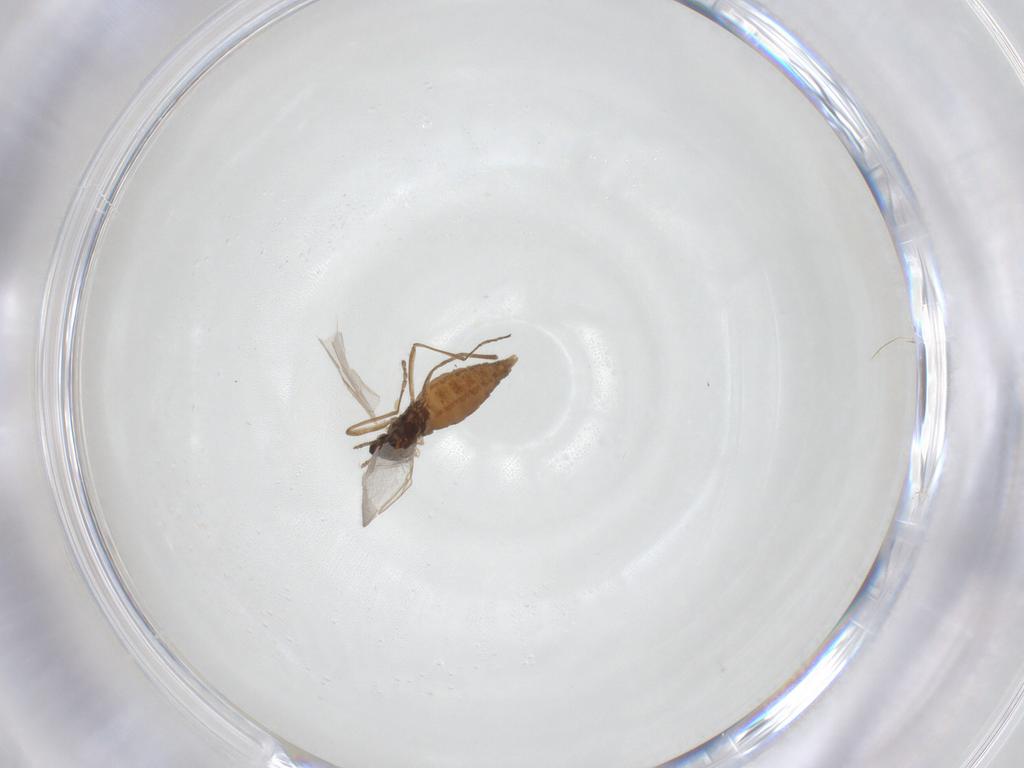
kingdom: Animalia
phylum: Arthropoda
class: Insecta
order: Diptera
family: Cecidomyiidae
